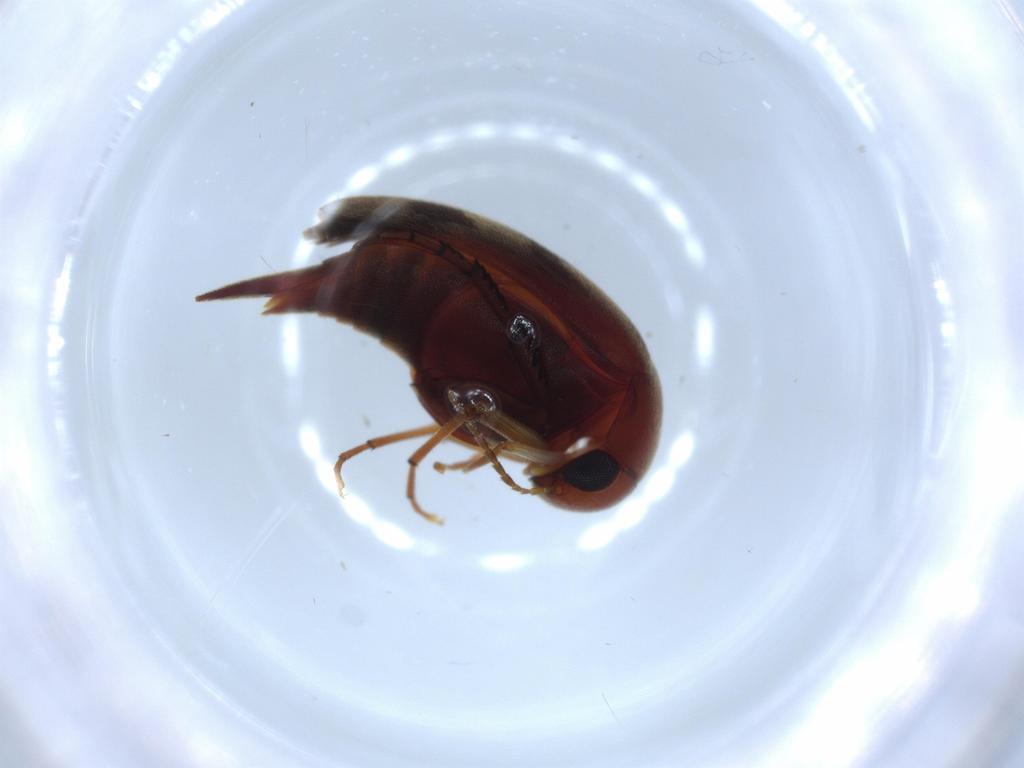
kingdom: Animalia
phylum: Arthropoda
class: Insecta
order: Coleoptera
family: Mordellidae
